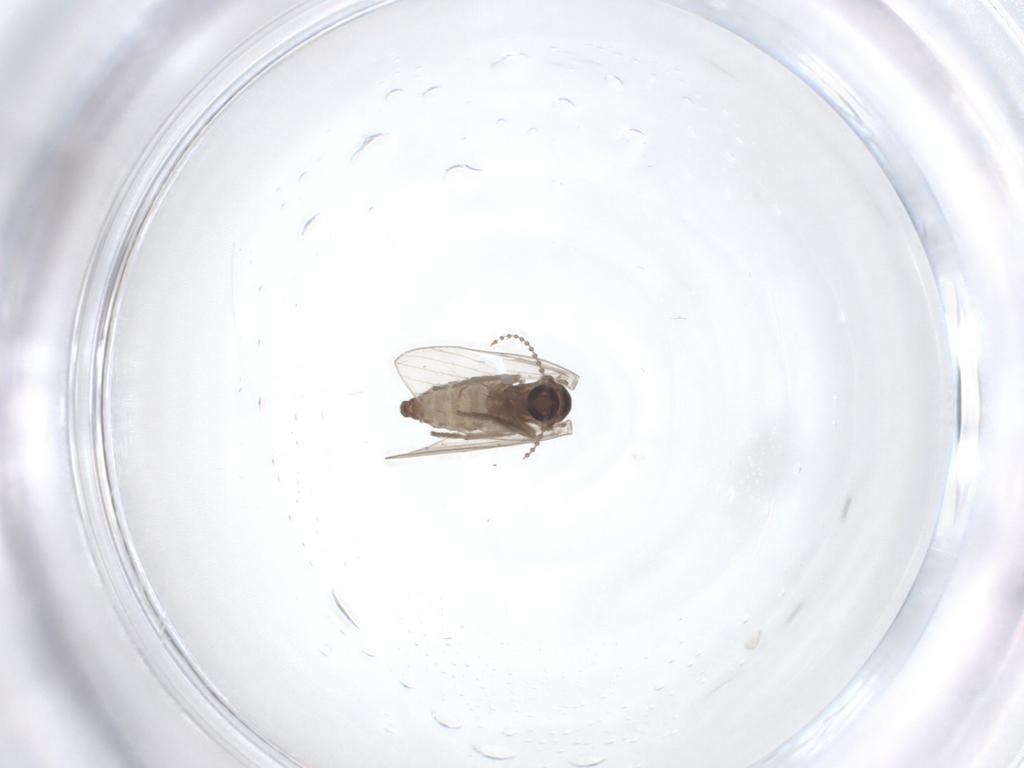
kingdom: Animalia
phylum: Arthropoda
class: Insecta
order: Diptera
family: Psychodidae
